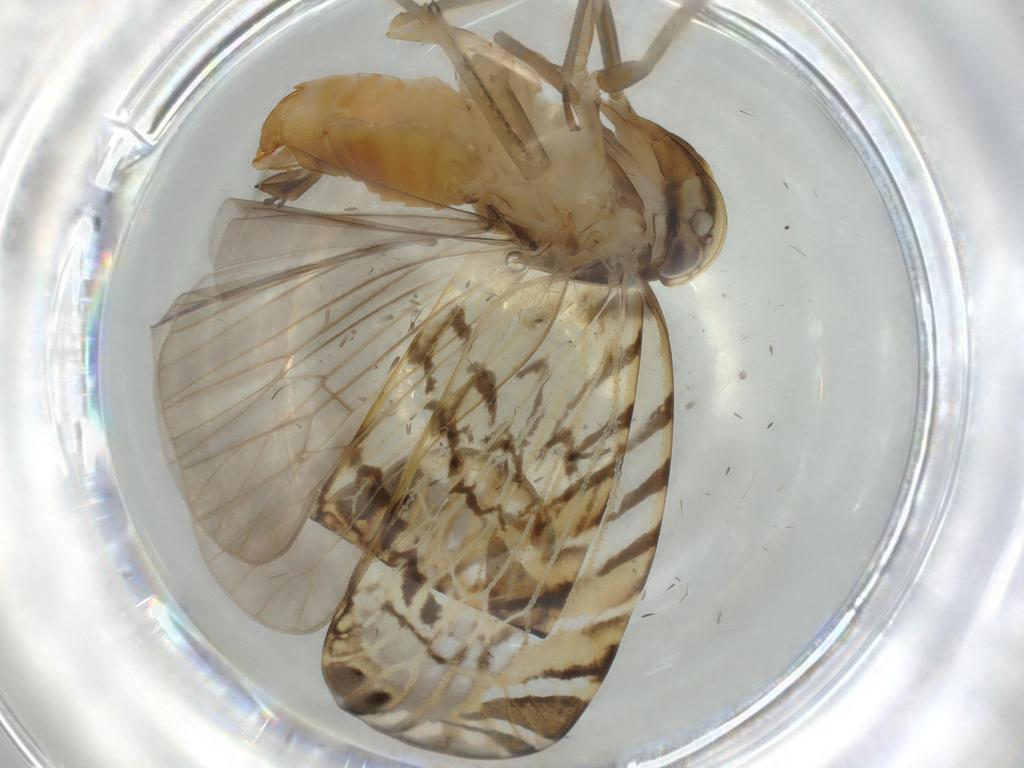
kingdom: Animalia
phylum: Arthropoda
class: Insecta
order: Hemiptera
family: Cixiidae
